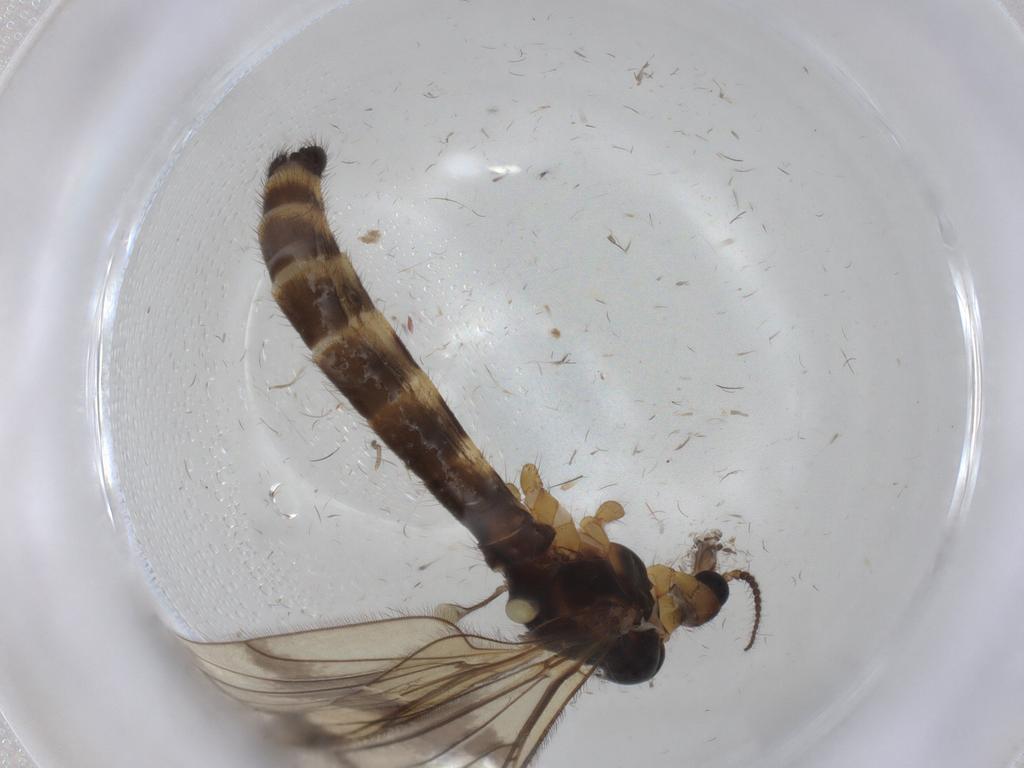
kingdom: Animalia
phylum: Arthropoda
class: Insecta
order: Diptera
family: Limoniidae
